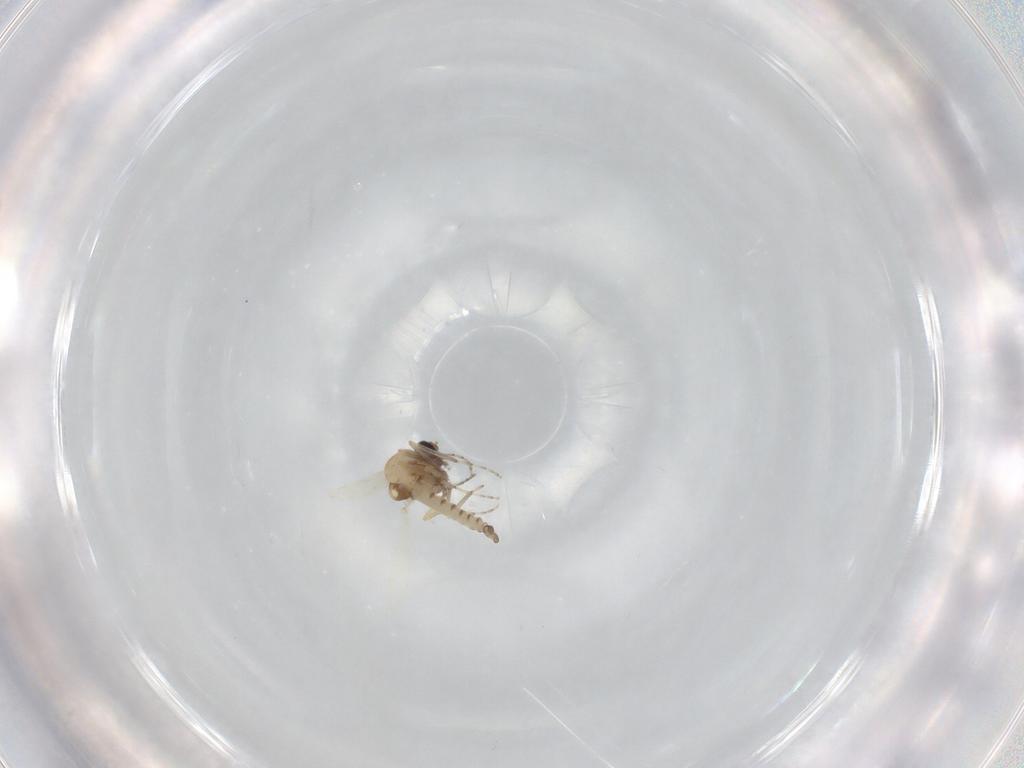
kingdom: Animalia
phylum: Arthropoda
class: Insecta
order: Diptera
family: Ceratopogonidae
